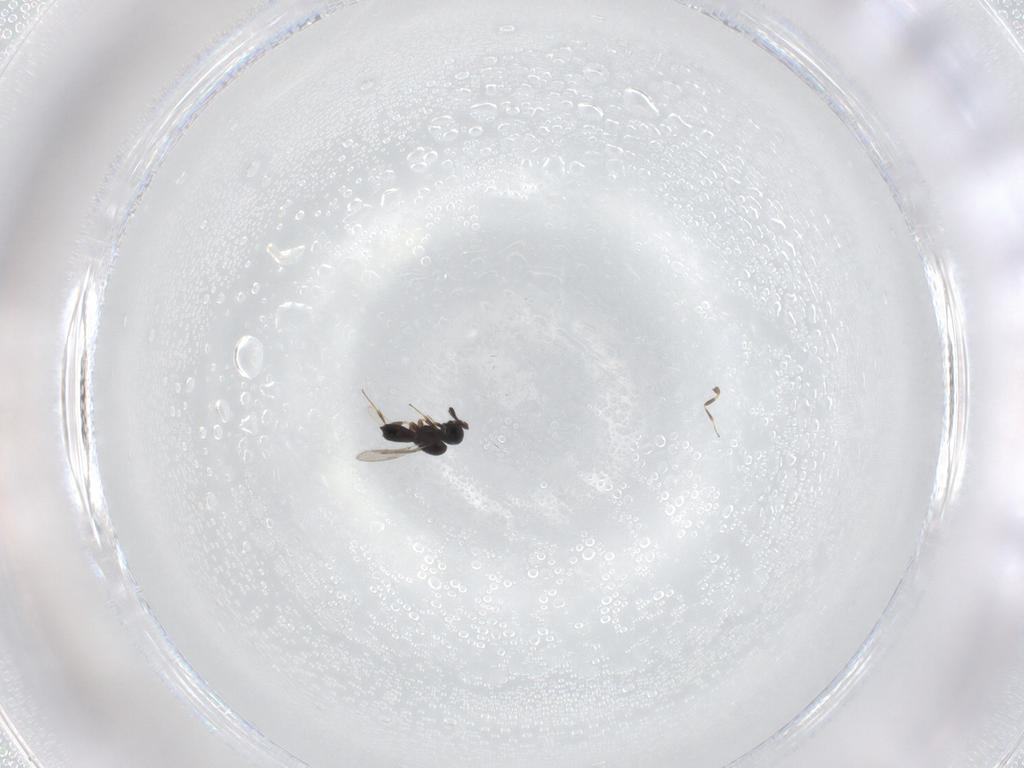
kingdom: Animalia
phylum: Arthropoda
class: Insecta
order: Hymenoptera
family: Scelionidae
